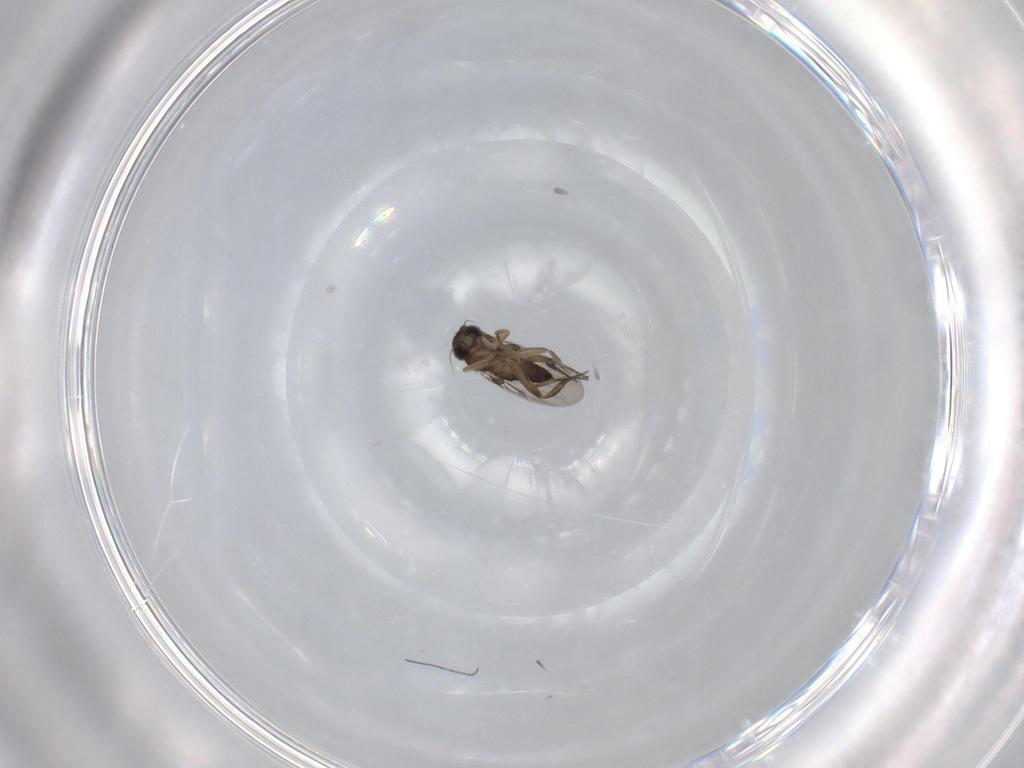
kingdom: Animalia
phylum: Arthropoda
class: Insecta
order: Diptera
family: Phoridae
